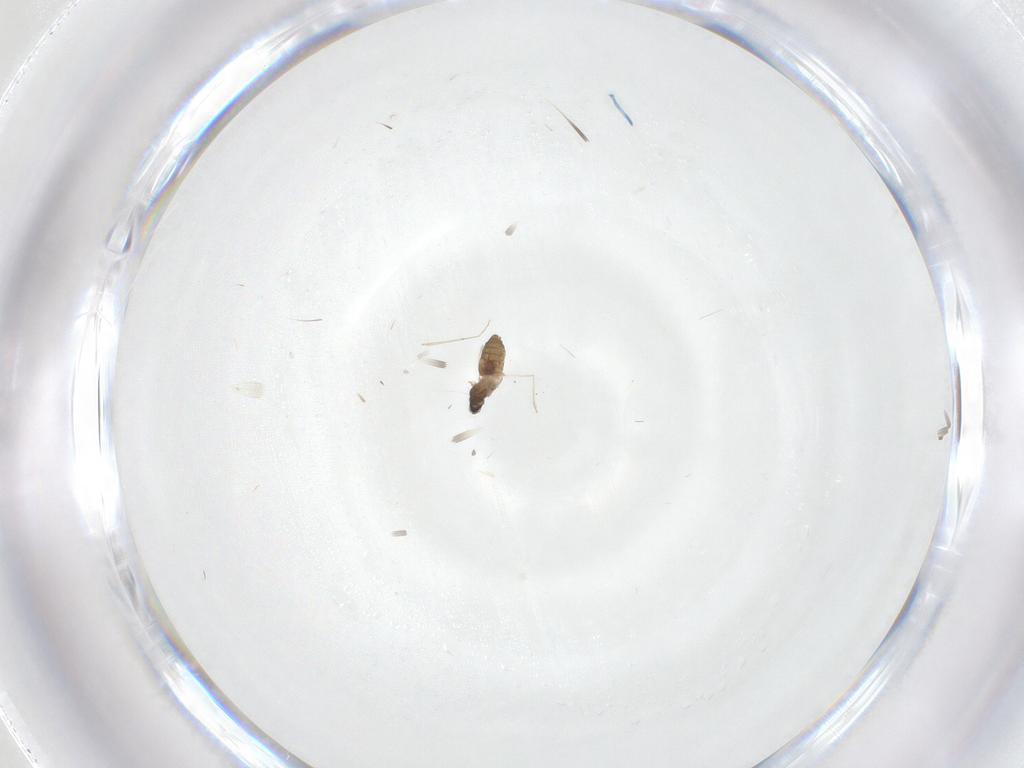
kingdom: Animalia
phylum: Arthropoda
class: Insecta
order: Diptera
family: Cecidomyiidae
